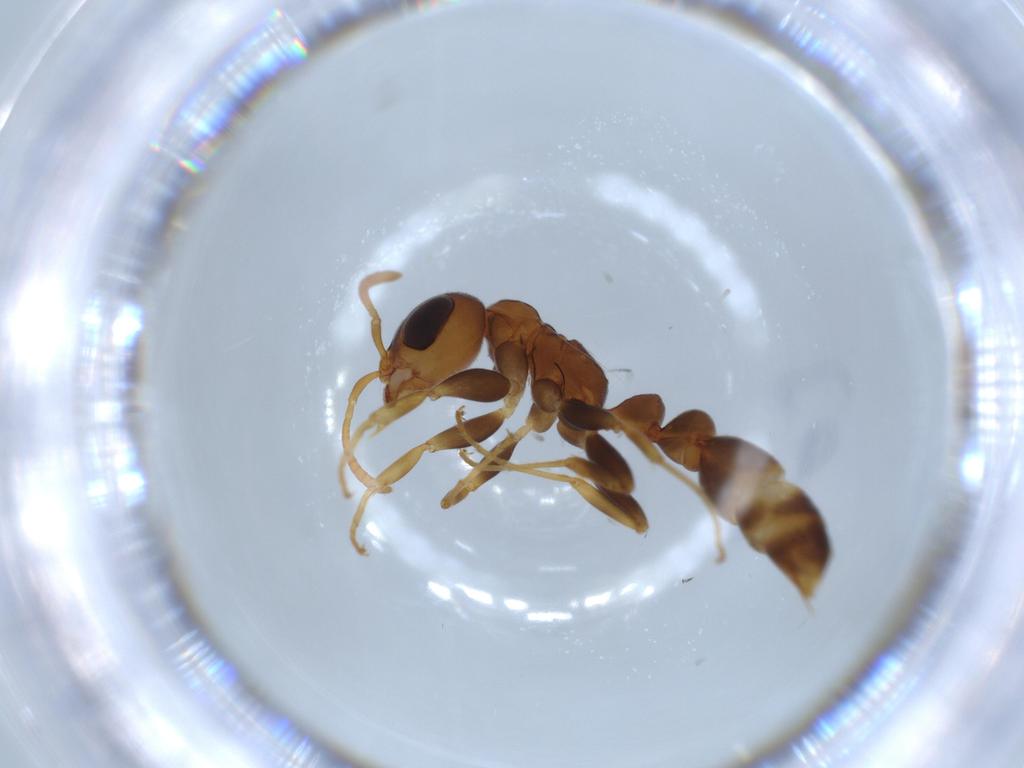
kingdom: Animalia
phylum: Arthropoda
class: Insecta
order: Hymenoptera
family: Formicidae
